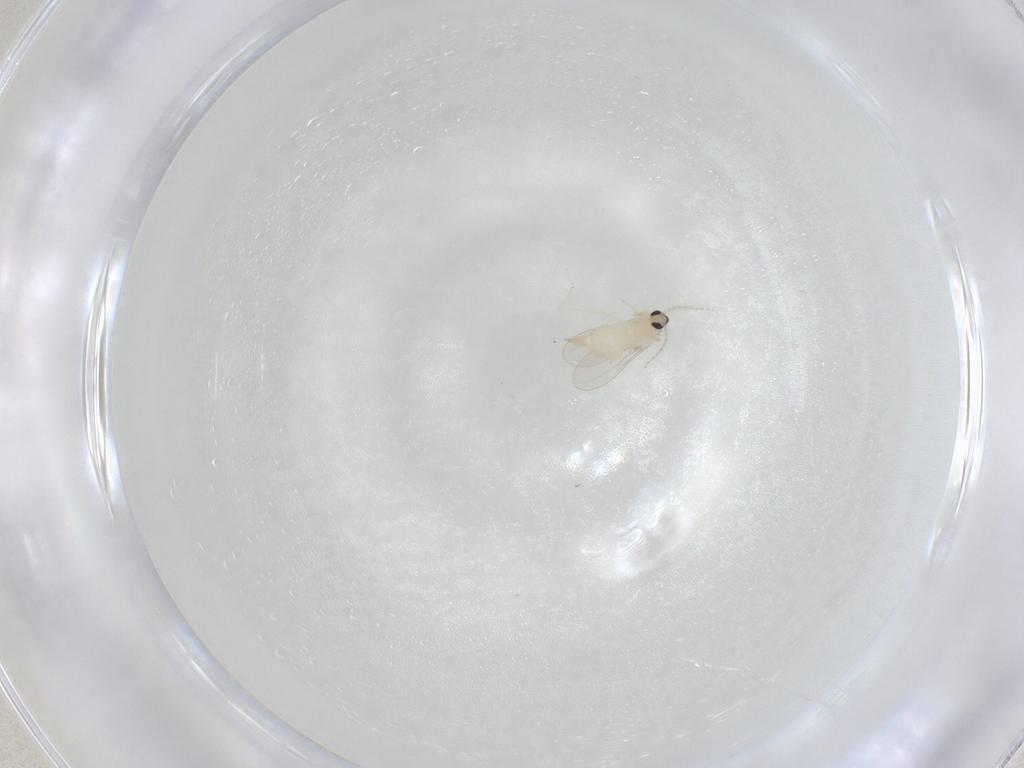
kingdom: Animalia
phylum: Arthropoda
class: Insecta
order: Diptera
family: Cecidomyiidae
